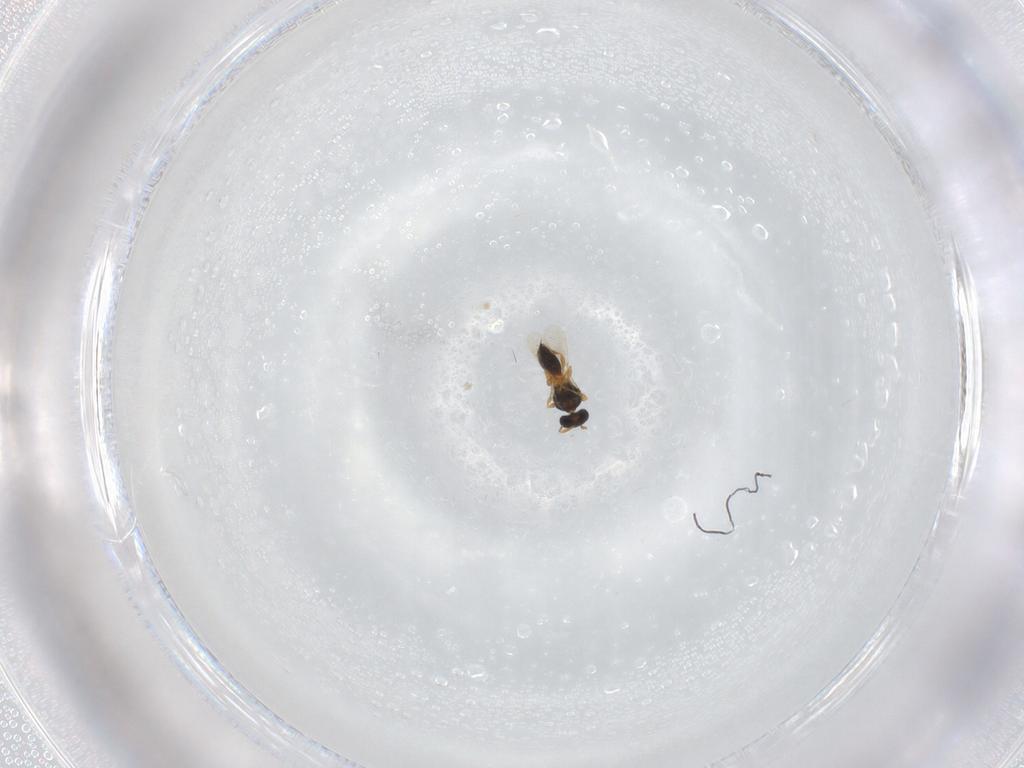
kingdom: Animalia
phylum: Arthropoda
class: Insecta
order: Hymenoptera
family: Platygastridae
